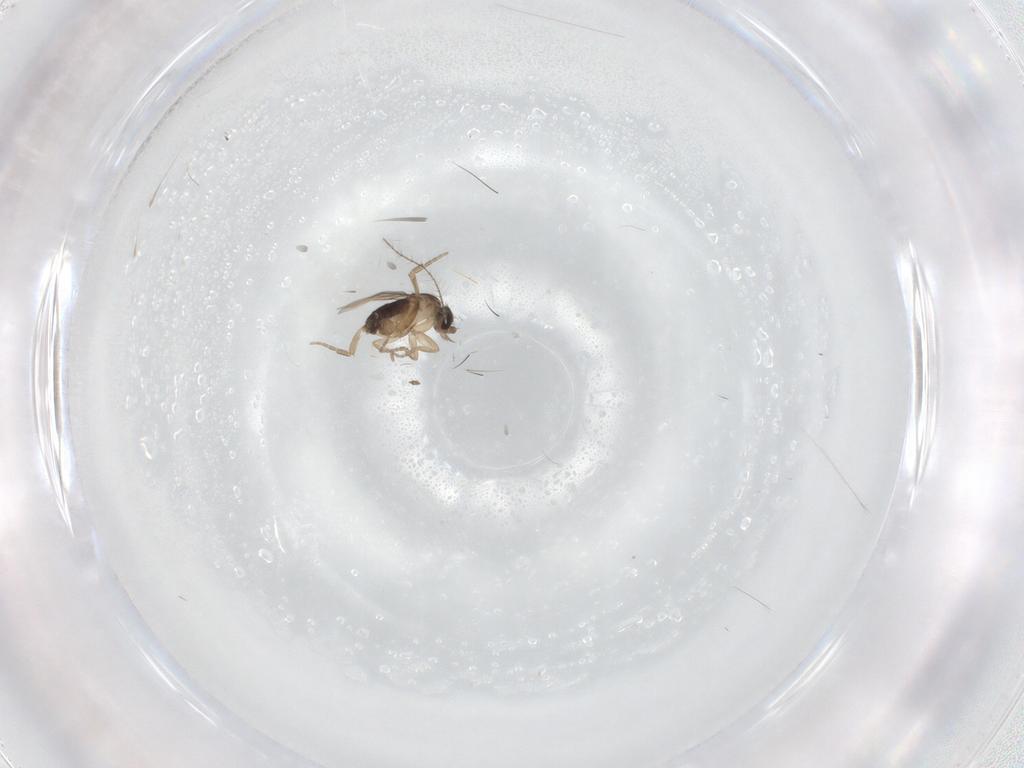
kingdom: Animalia
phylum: Arthropoda
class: Insecta
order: Diptera
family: Phoridae
